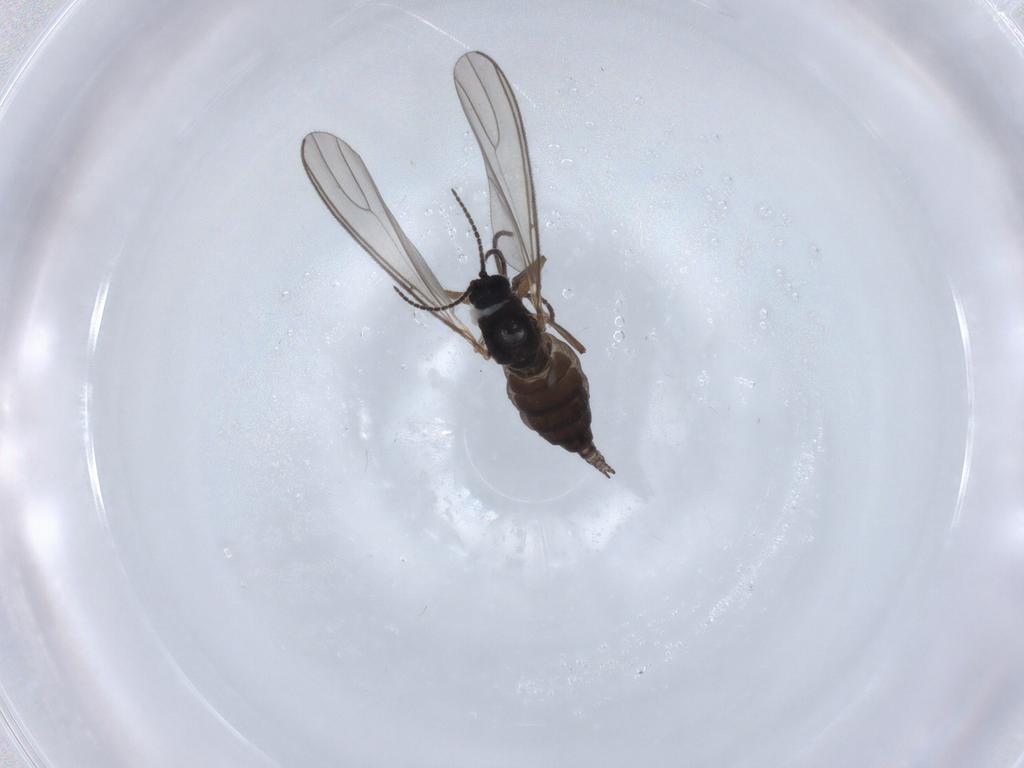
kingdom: Animalia
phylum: Arthropoda
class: Insecta
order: Diptera
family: Sciaridae
